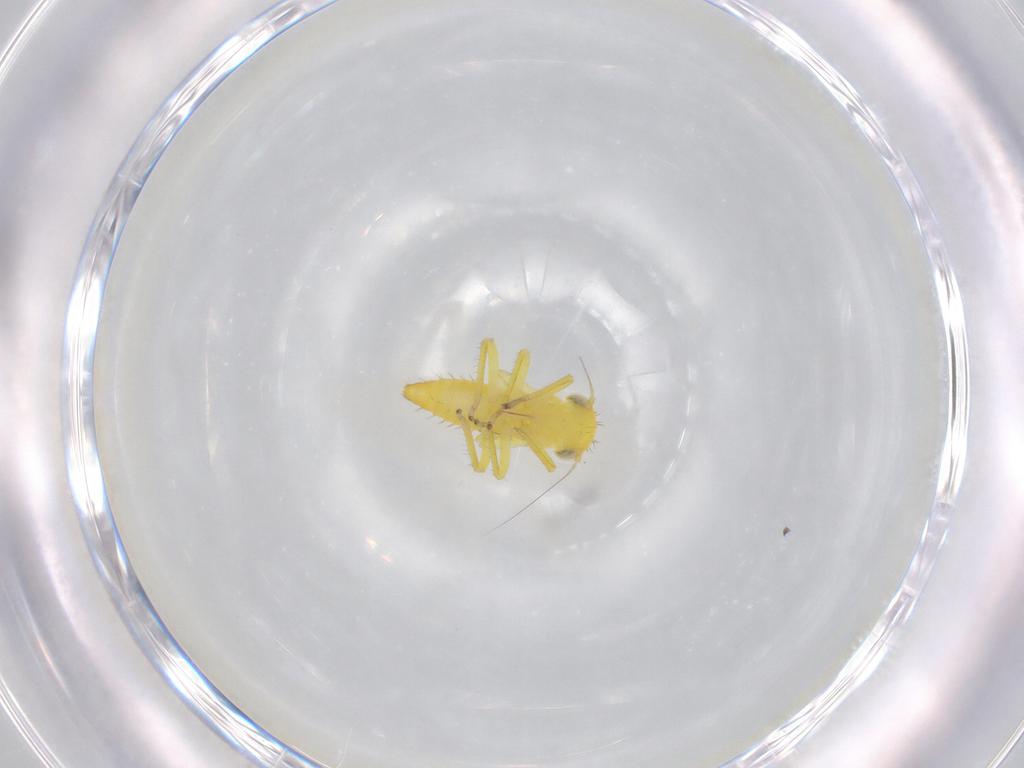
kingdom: Animalia
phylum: Arthropoda
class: Insecta
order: Hemiptera
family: Cicadellidae
